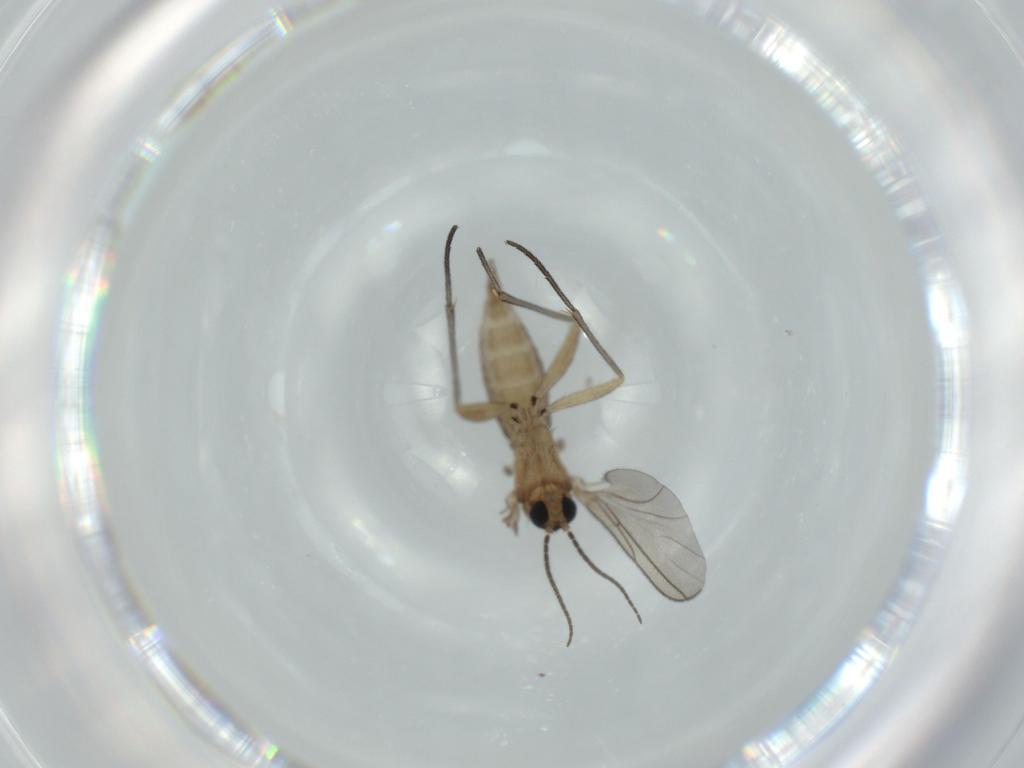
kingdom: Animalia
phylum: Arthropoda
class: Insecta
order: Diptera
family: Sciaridae
